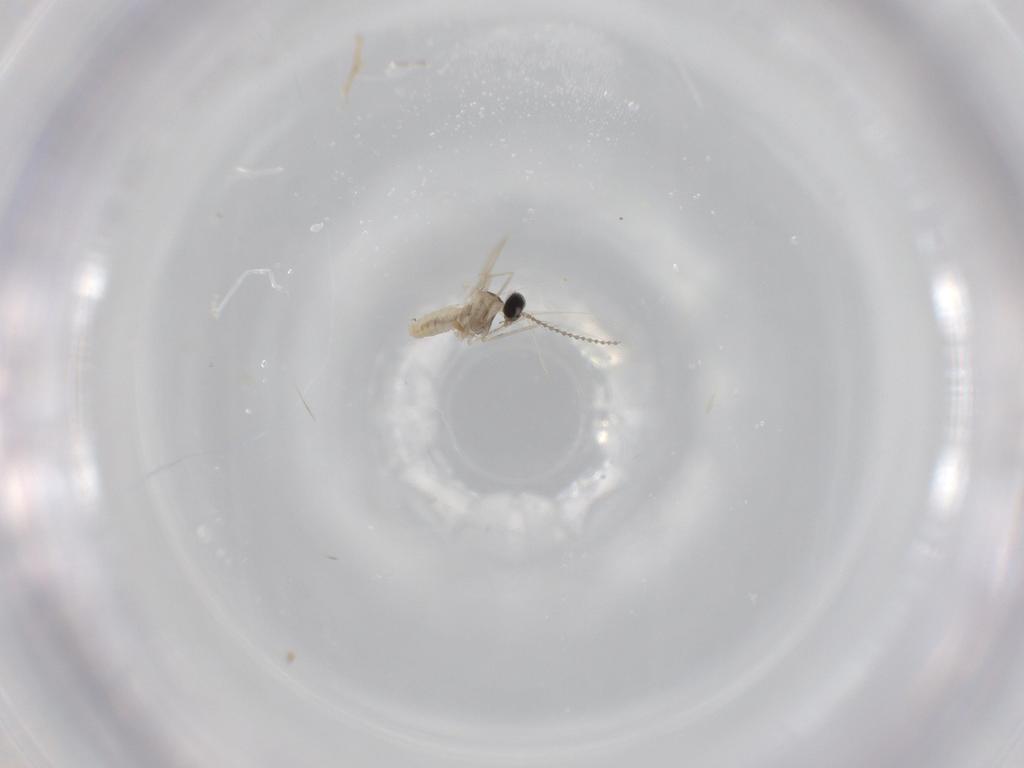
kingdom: Animalia
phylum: Arthropoda
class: Insecta
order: Diptera
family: Cecidomyiidae
